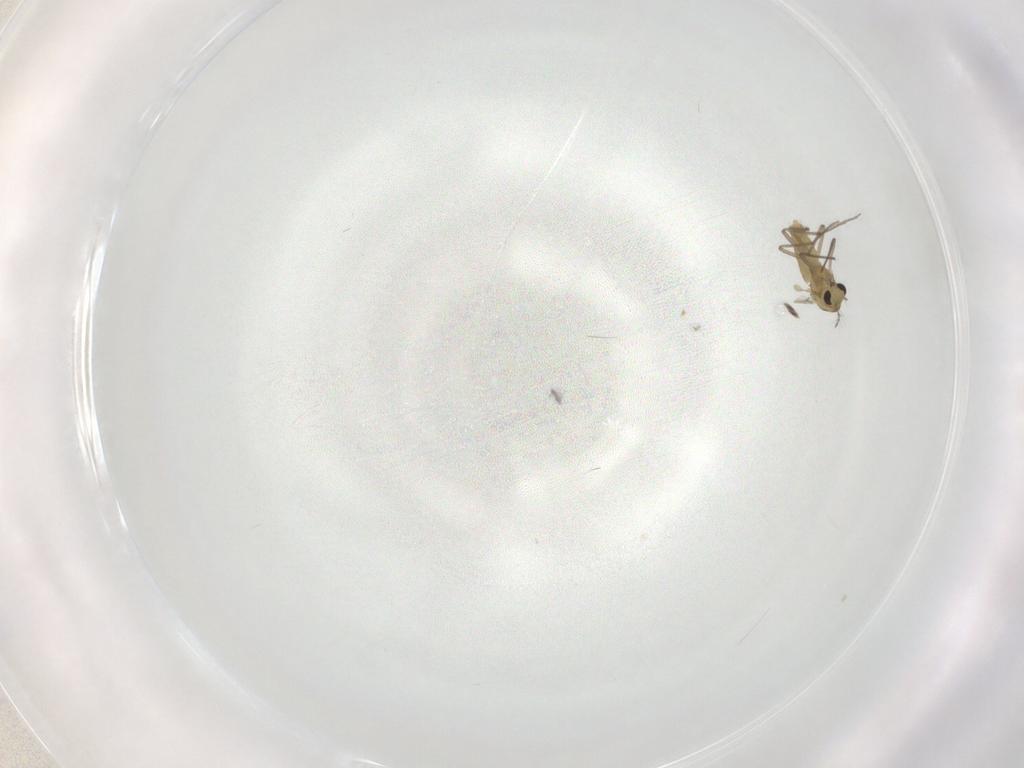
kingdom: Animalia
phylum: Arthropoda
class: Insecta
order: Diptera
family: Chironomidae
